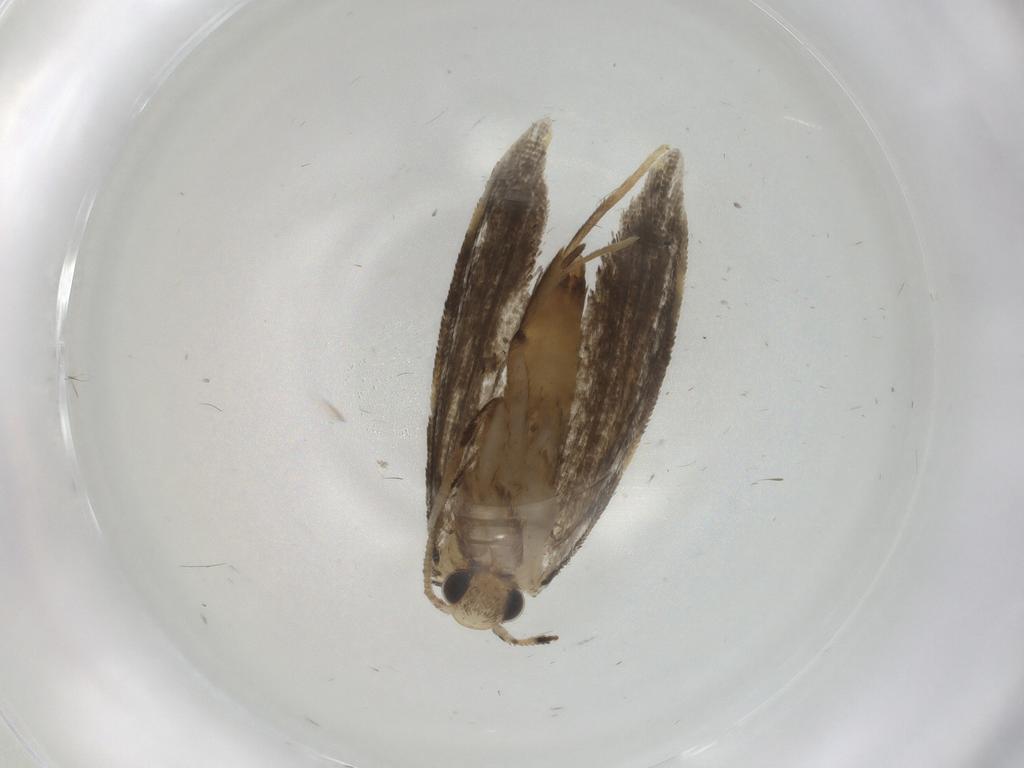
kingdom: Animalia
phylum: Arthropoda
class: Insecta
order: Lepidoptera
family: Psychidae
